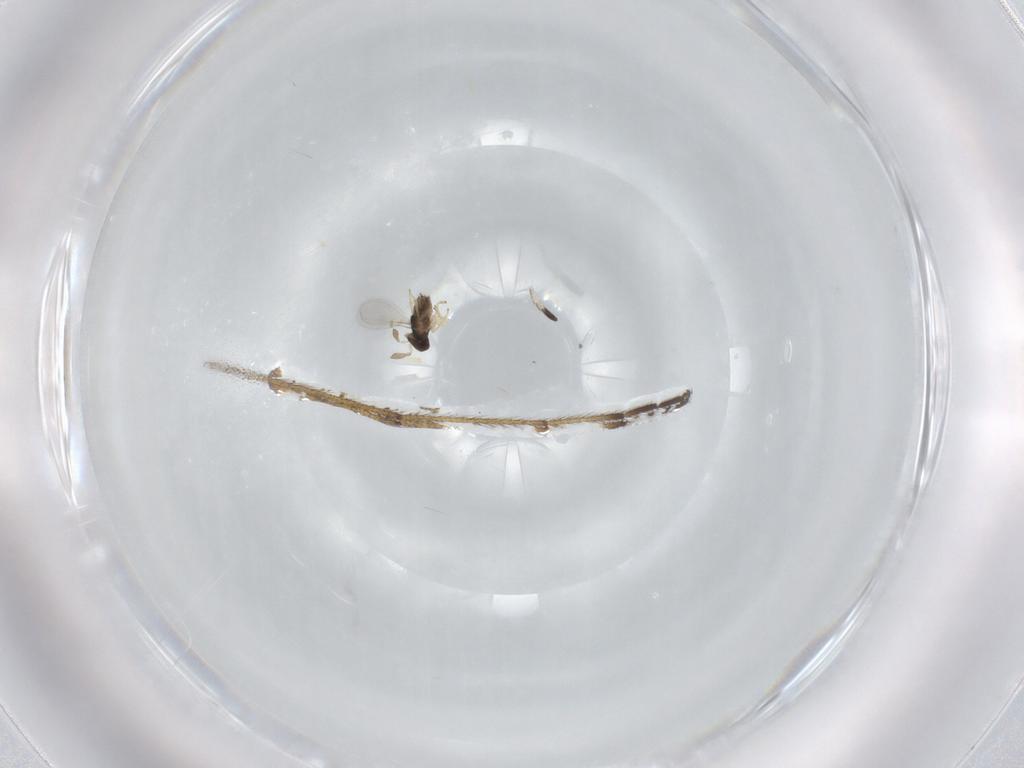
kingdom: Animalia
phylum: Arthropoda
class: Insecta
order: Hymenoptera
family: Encyrtidae
